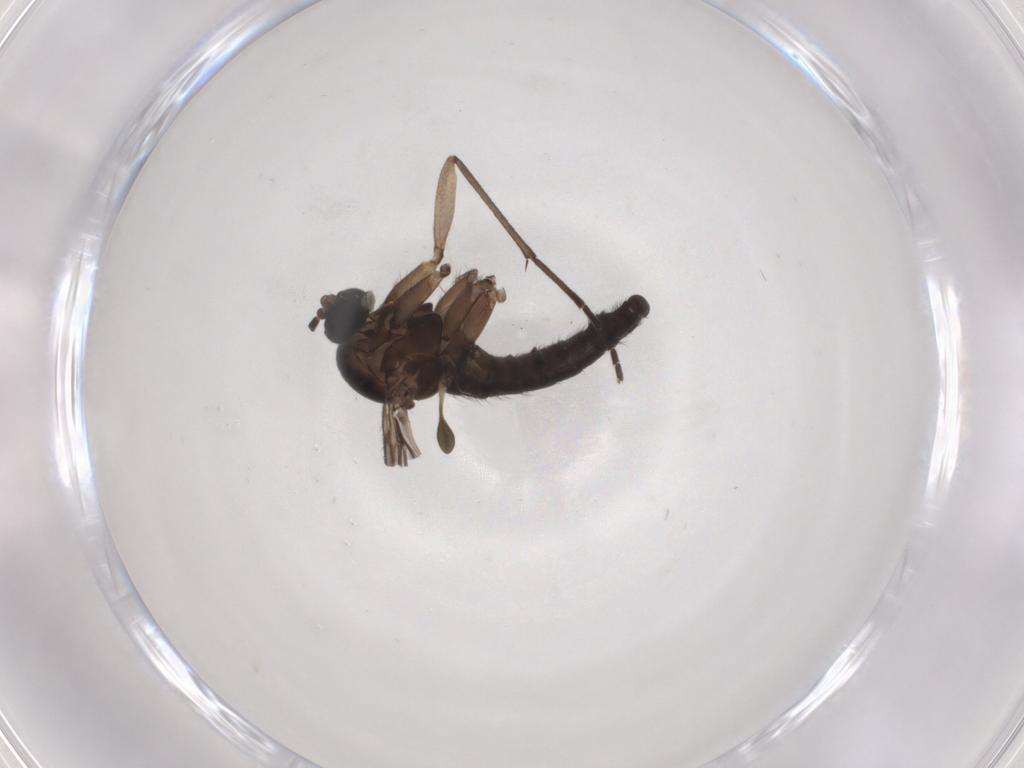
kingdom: Animalia
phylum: Arthropoda
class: Insecta
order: Diptera
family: Sciaridae
